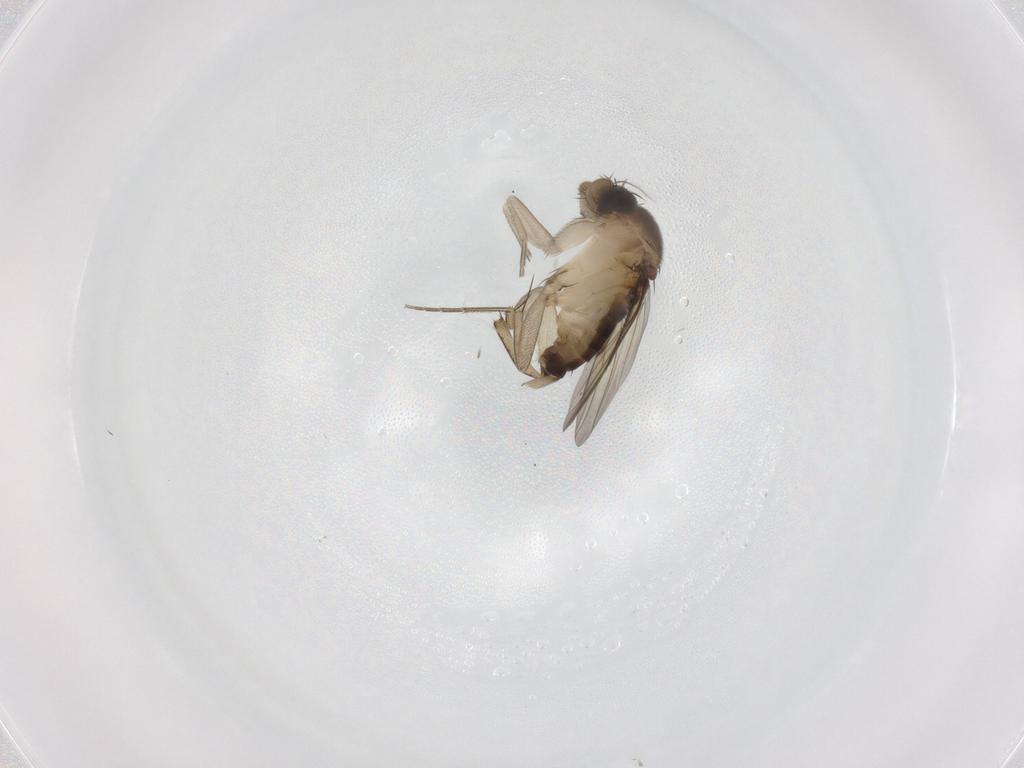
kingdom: Animalia
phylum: Arthropoda
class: Insecta
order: Diptera
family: Phoridae
